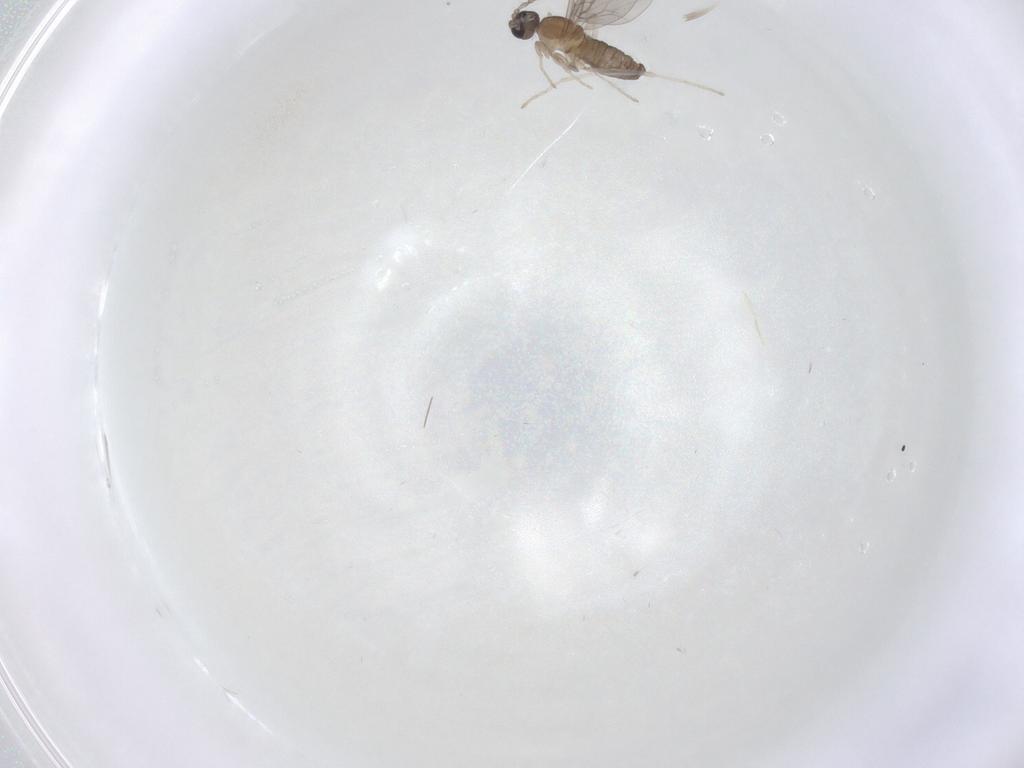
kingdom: Animalia
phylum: Arthropoda
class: Insecta
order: Diptera
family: Cecidomyiidae
